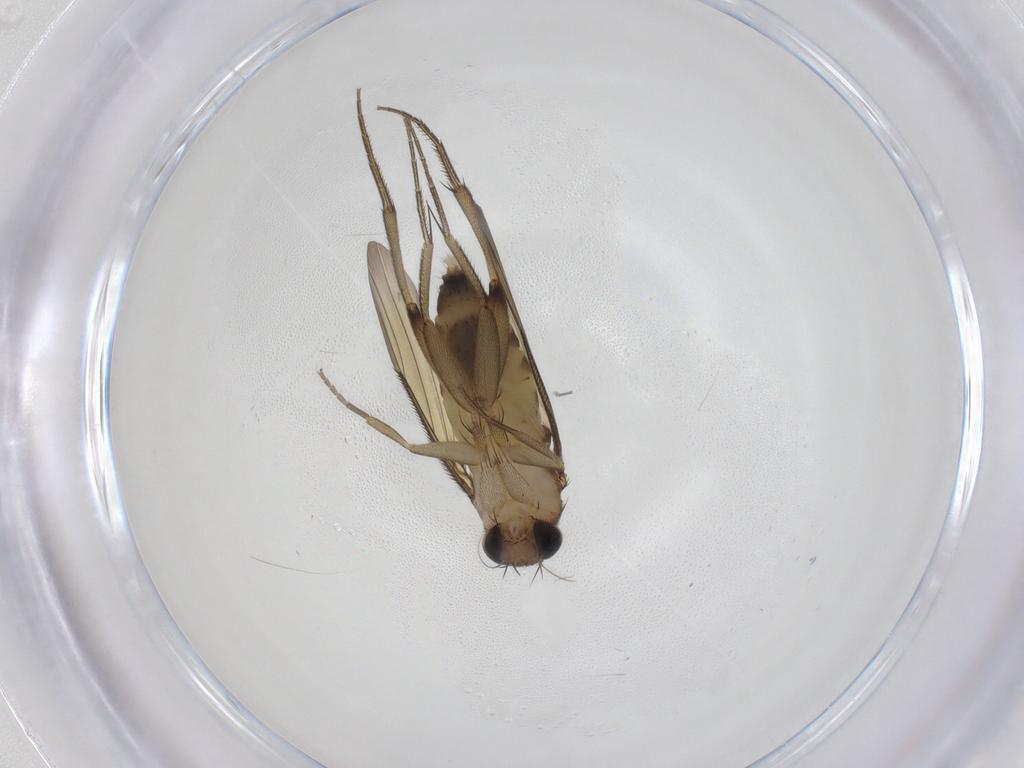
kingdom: Animalia
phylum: Arthropoda
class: Insecta
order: Diptera
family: Phoridae
